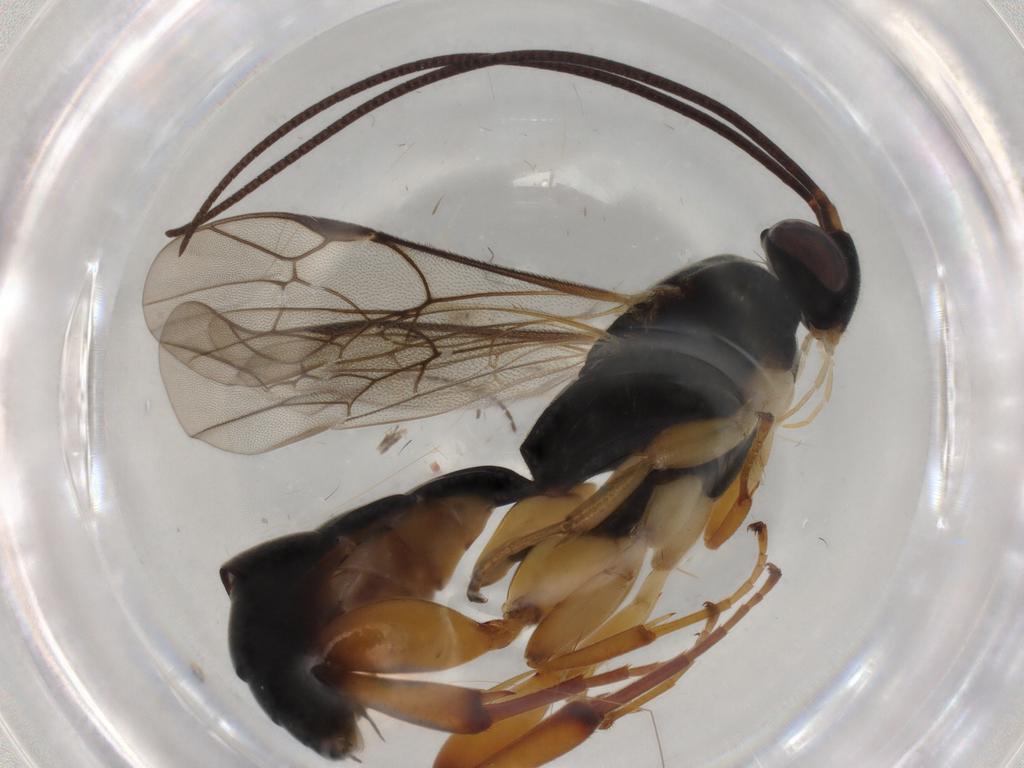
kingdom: Animalia
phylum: Arthropoda
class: Insecta
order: Hymenoptera
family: Ichneumonidae
